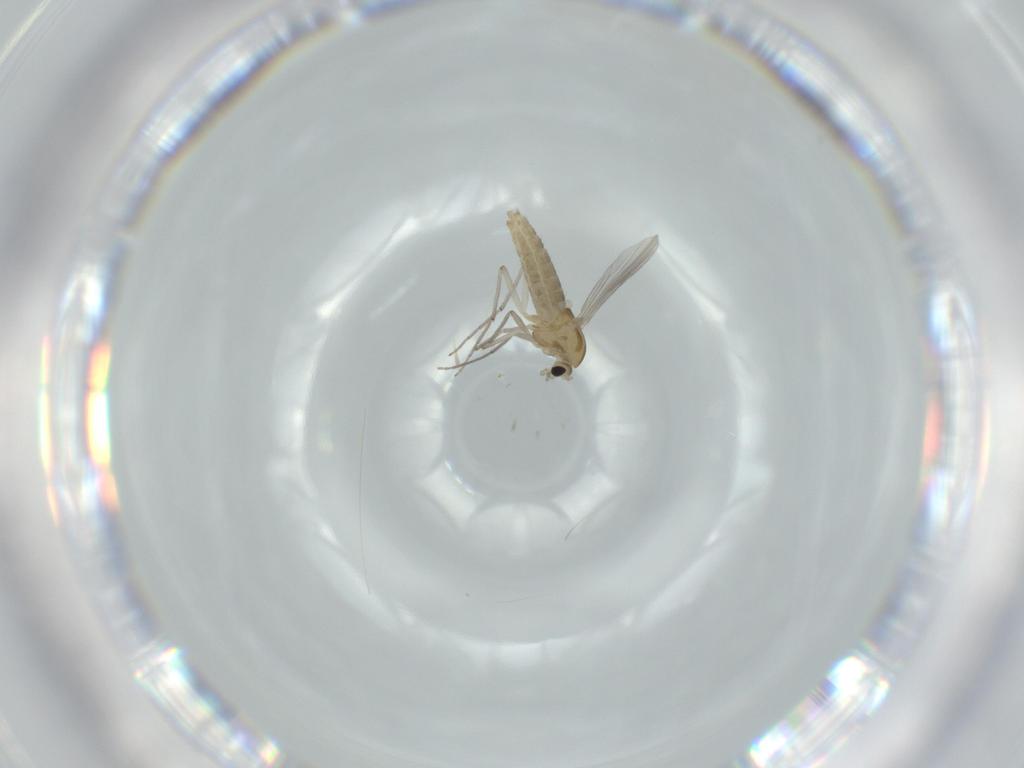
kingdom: Animalia
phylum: Arthropoda
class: Insecta
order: Diptera
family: Chironomidae
